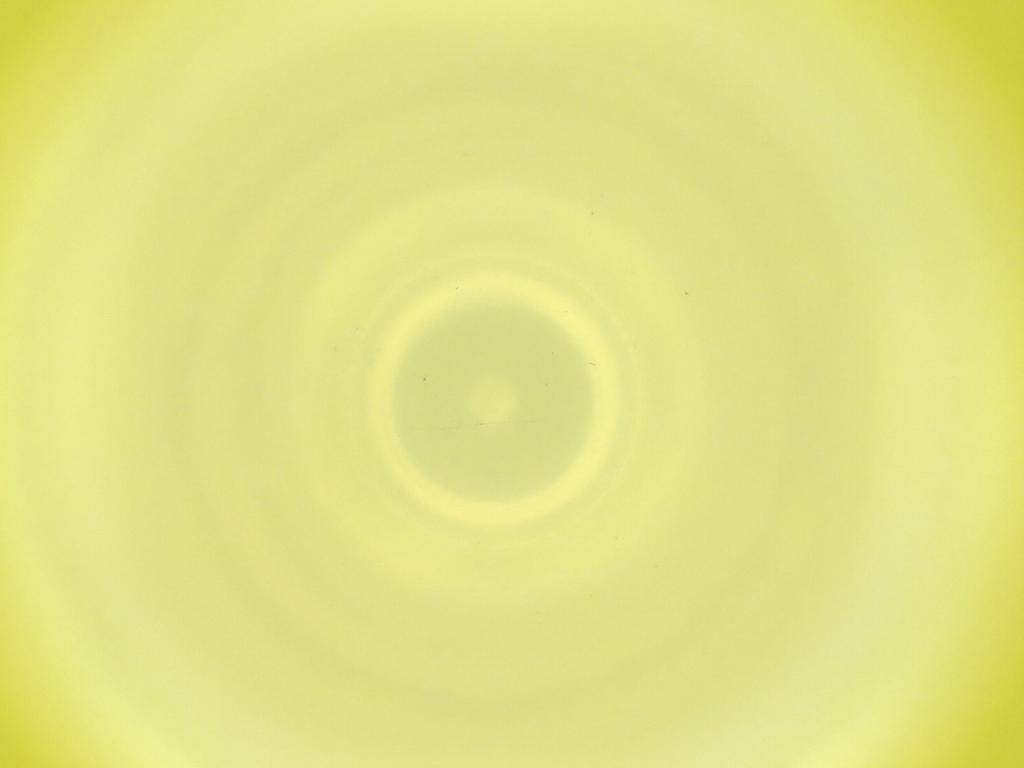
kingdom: Animalia
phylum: Arthropoda
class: Insecta
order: Diptera
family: Cecidomyiidae
